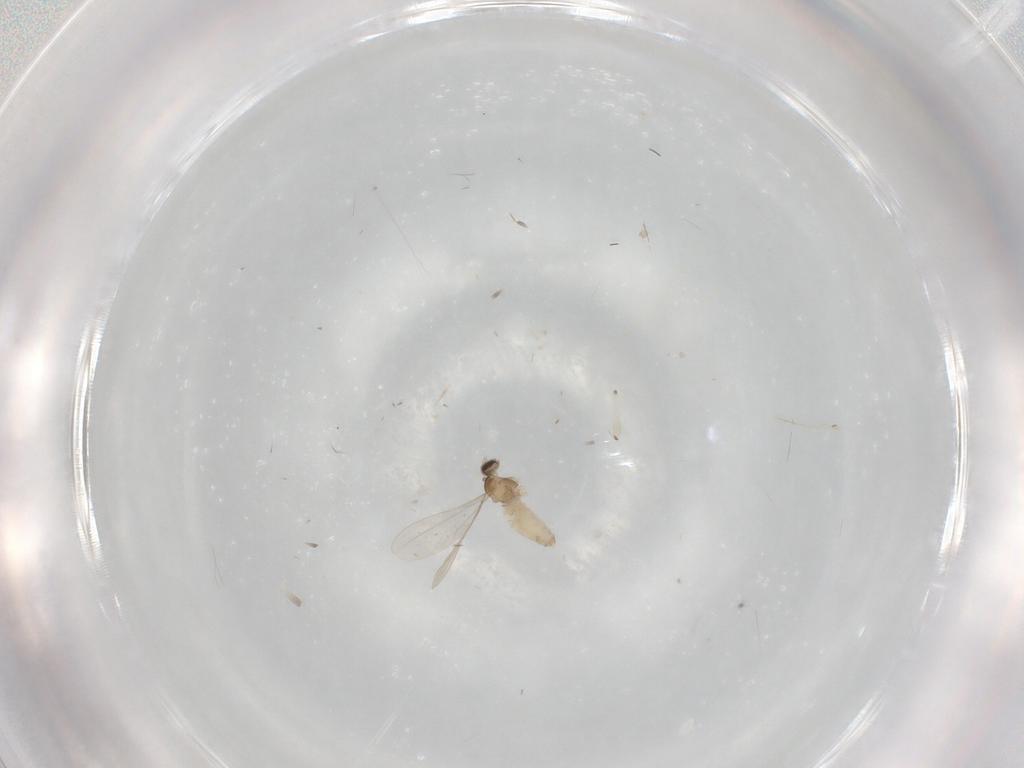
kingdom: Animalia
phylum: Arthropoda
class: Insecta
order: Diptera
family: Cecidomyiidae
